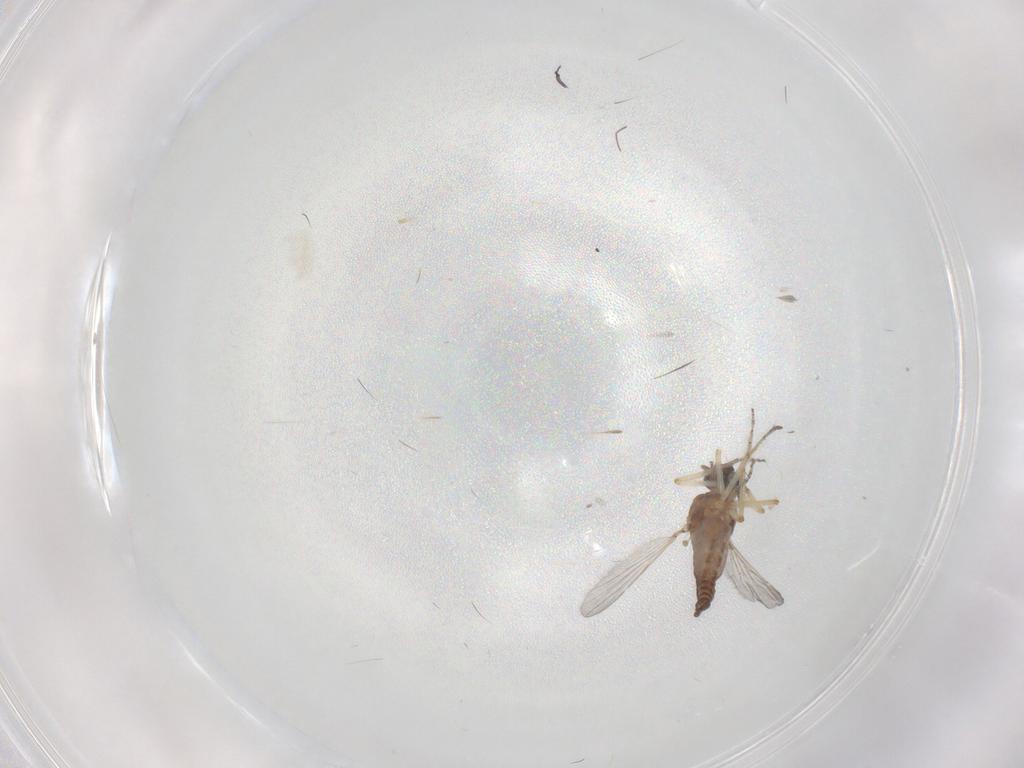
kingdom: Animalia
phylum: Arthropoda
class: Insecta
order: Diptera
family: Ceratopogonidae
